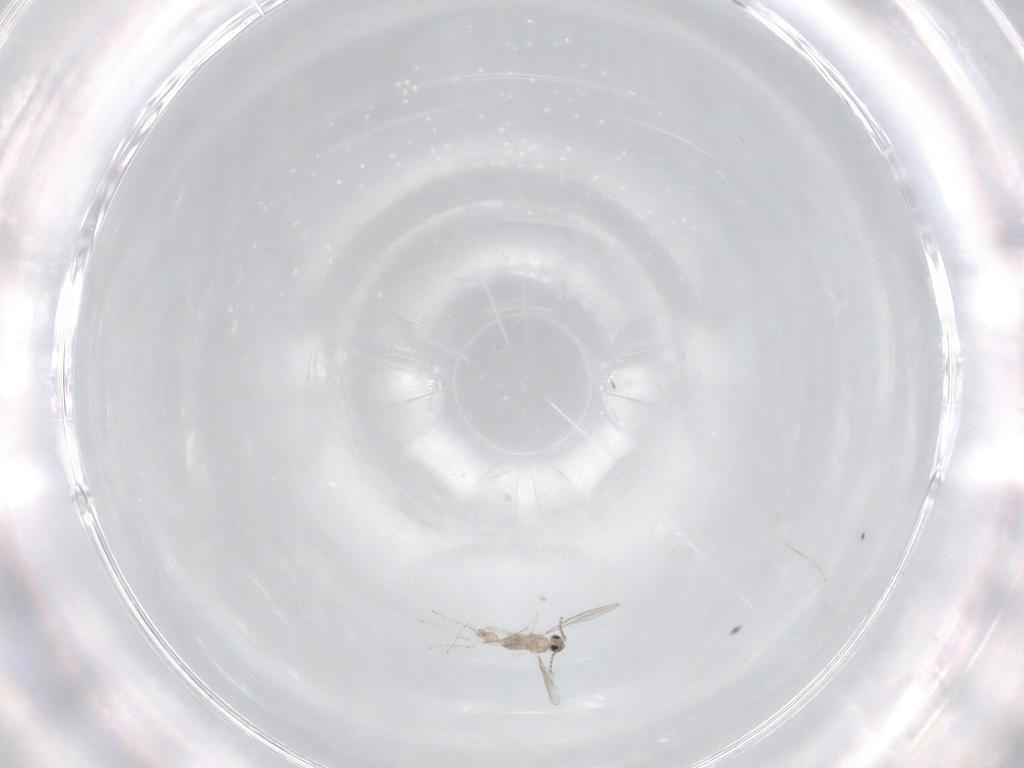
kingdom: Animalia
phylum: Arthropoda
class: Insecta
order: Diptera
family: Cecidomyiidae
